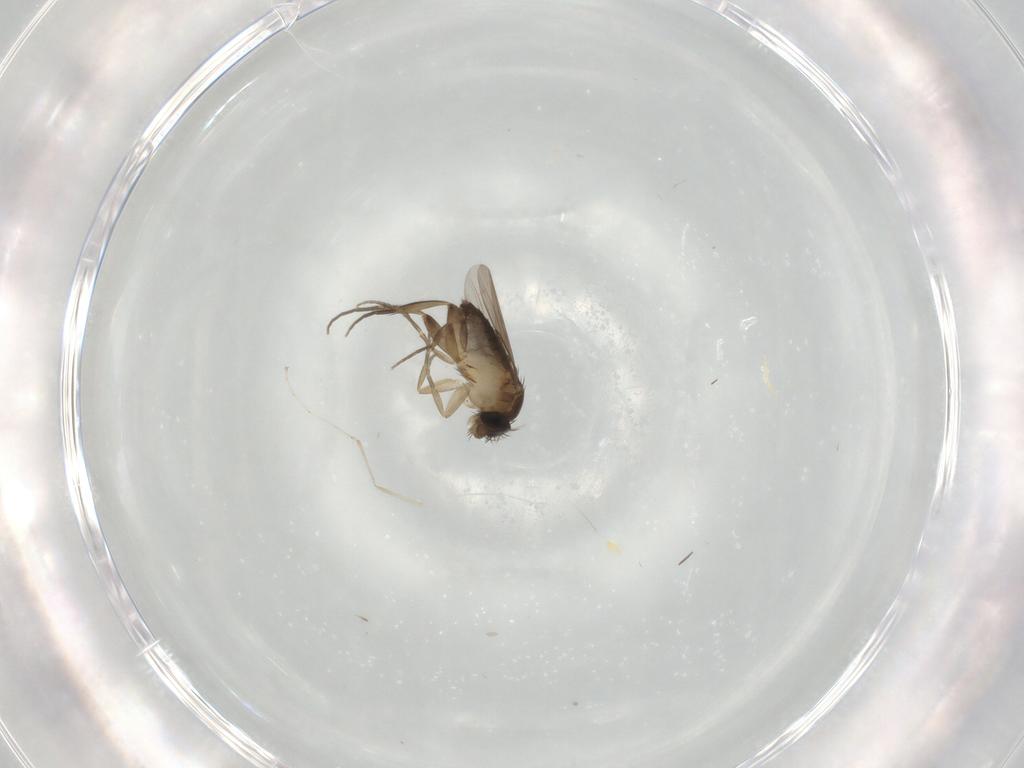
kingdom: Animalia
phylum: Arthropoda
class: Insecta
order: Diptera
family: Phoridae
